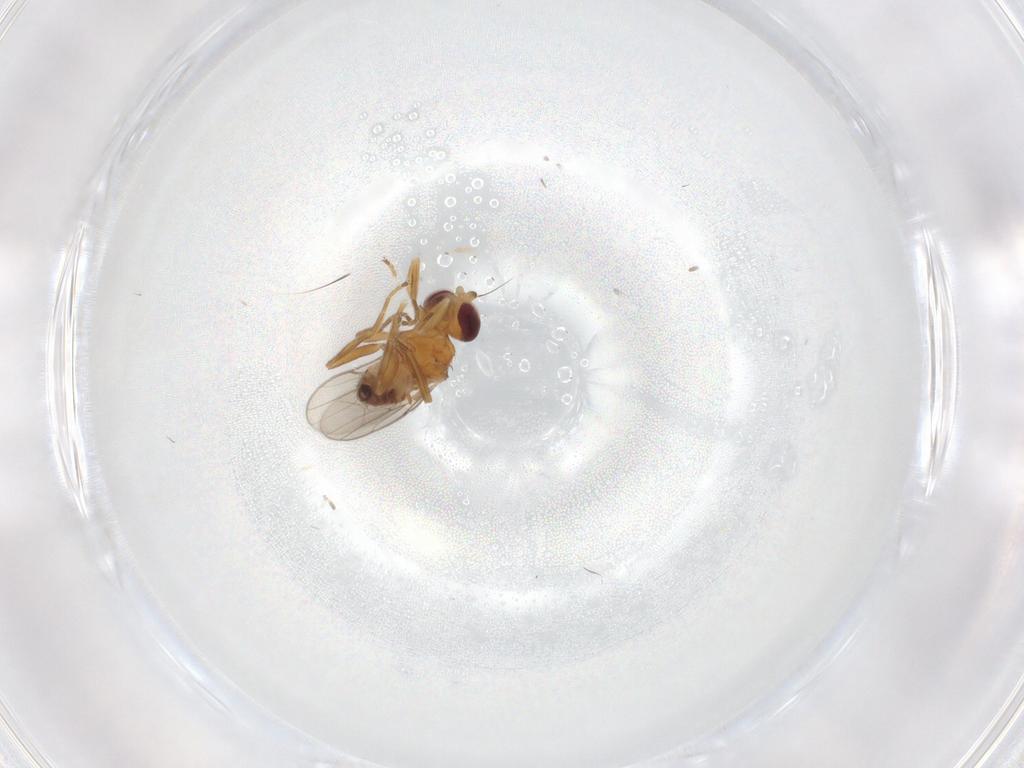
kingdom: Animalia
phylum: Arthropoda
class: Insecta
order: Diptera
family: Chloropidae
